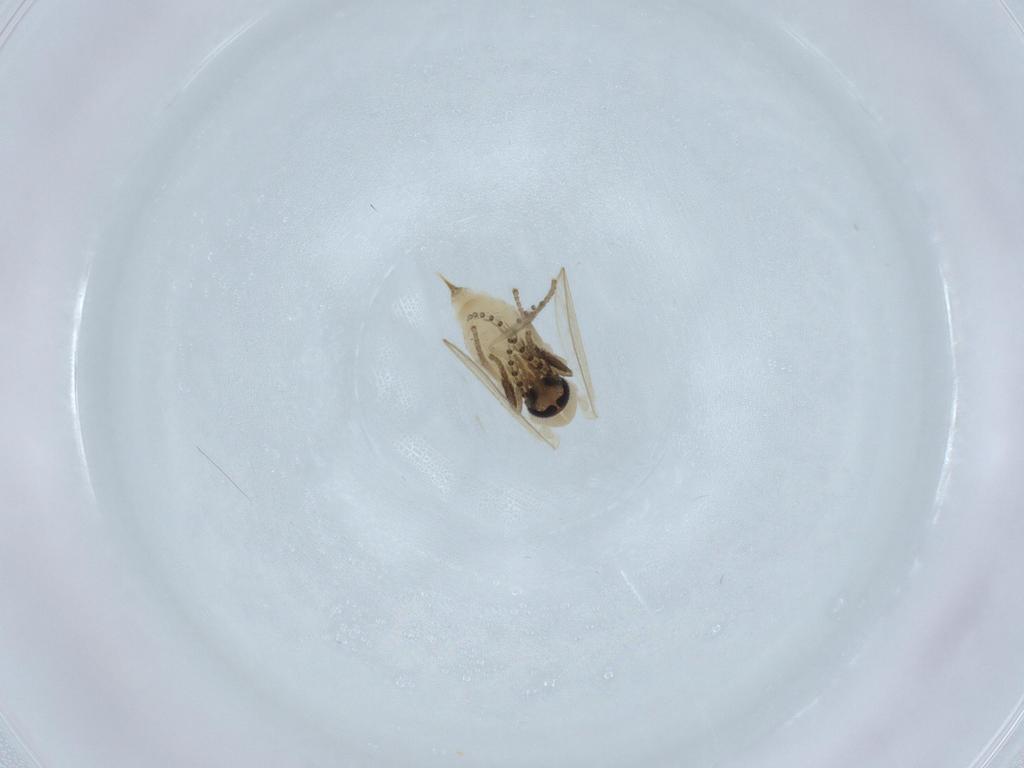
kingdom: Animalia
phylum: Arthropoda
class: Insecta
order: Diptera
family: Psychodidae
